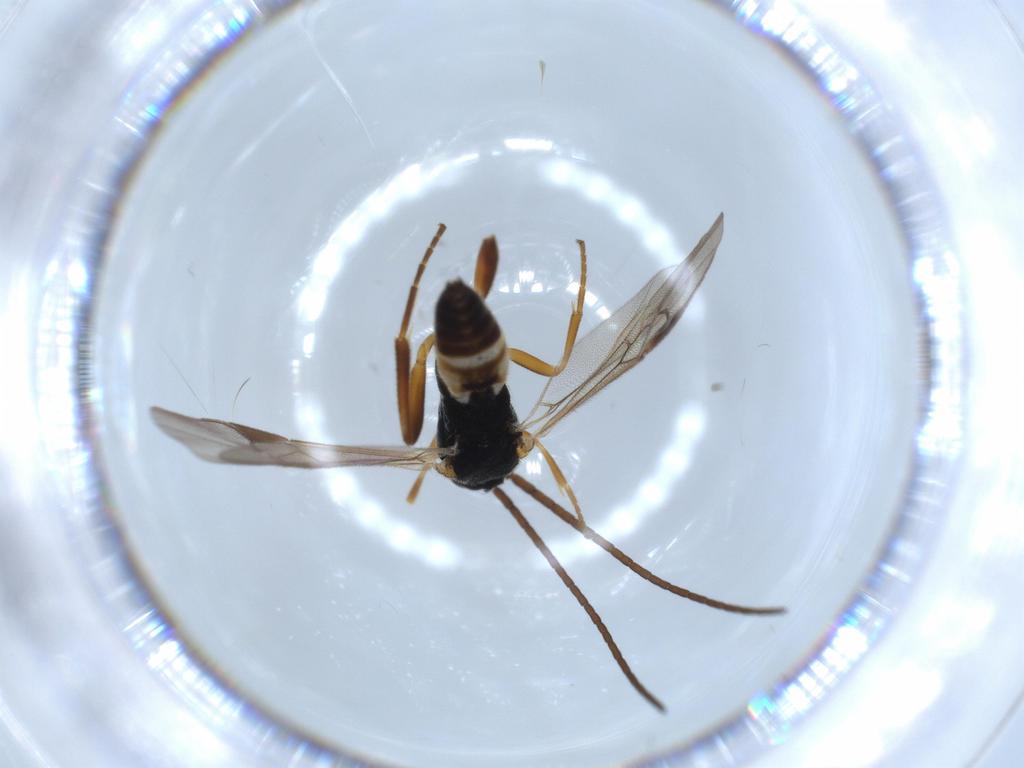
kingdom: Animalia
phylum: Arthropoda
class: Insecta
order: Hymenoptera
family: Braconidae
